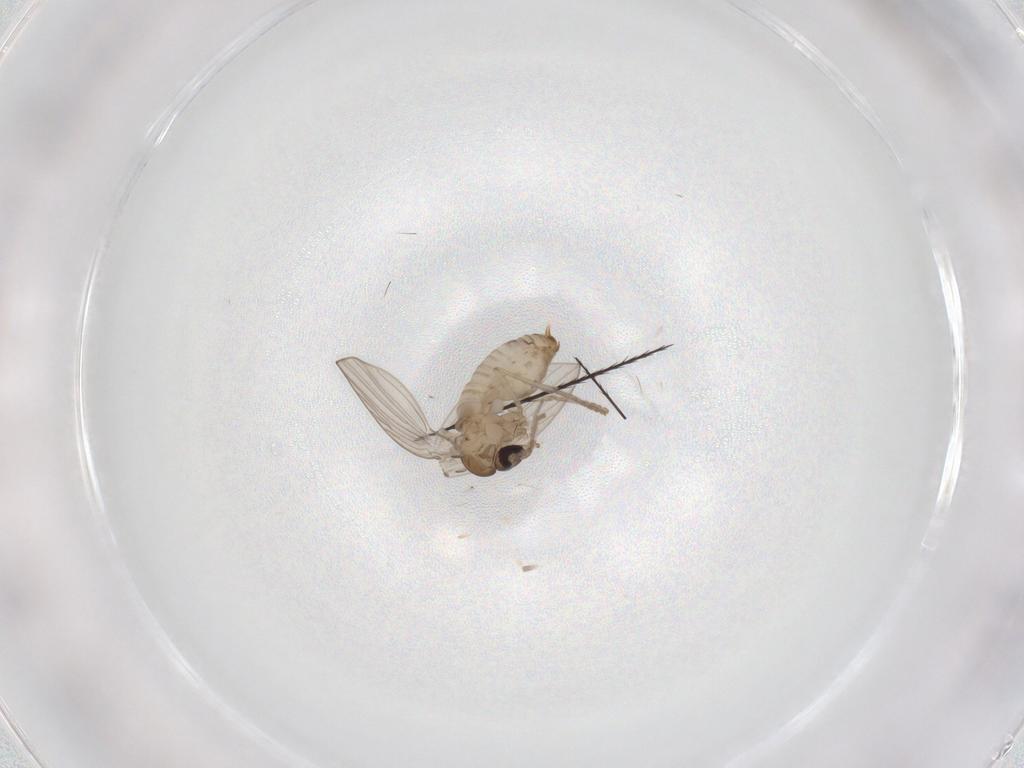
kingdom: Animalia
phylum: Arthropoda
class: Insecta
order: Diptera
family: Psychodidae
